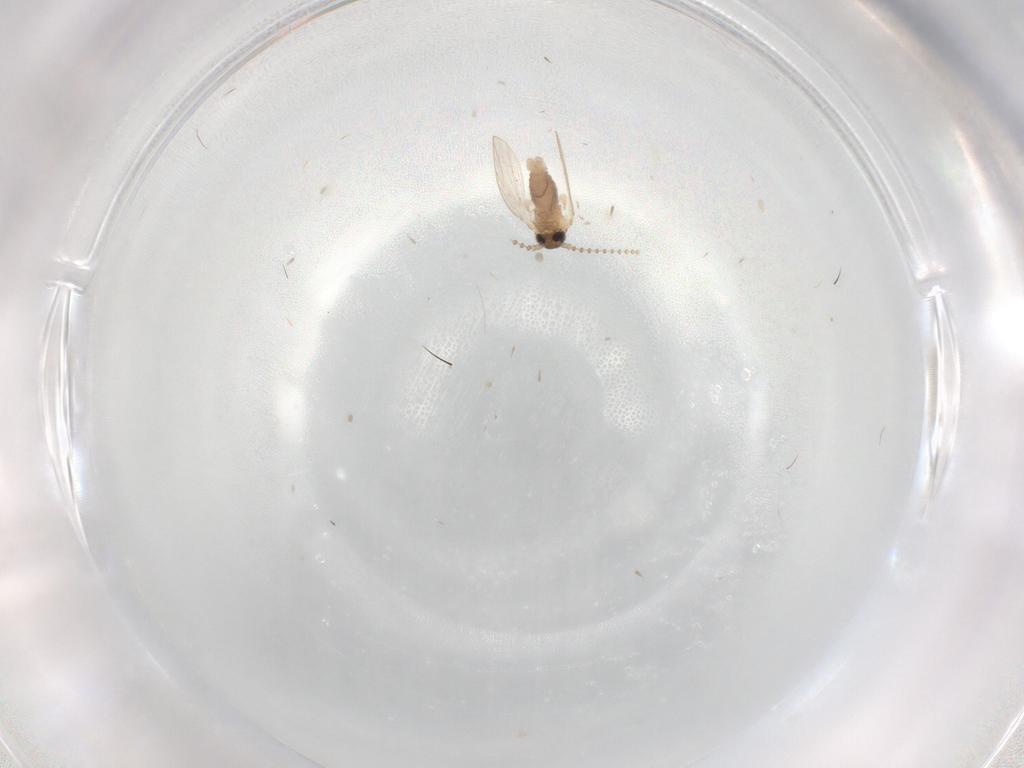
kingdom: Animalia
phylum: Arthropoda
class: Insecta
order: Diptera
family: Psychodidae
